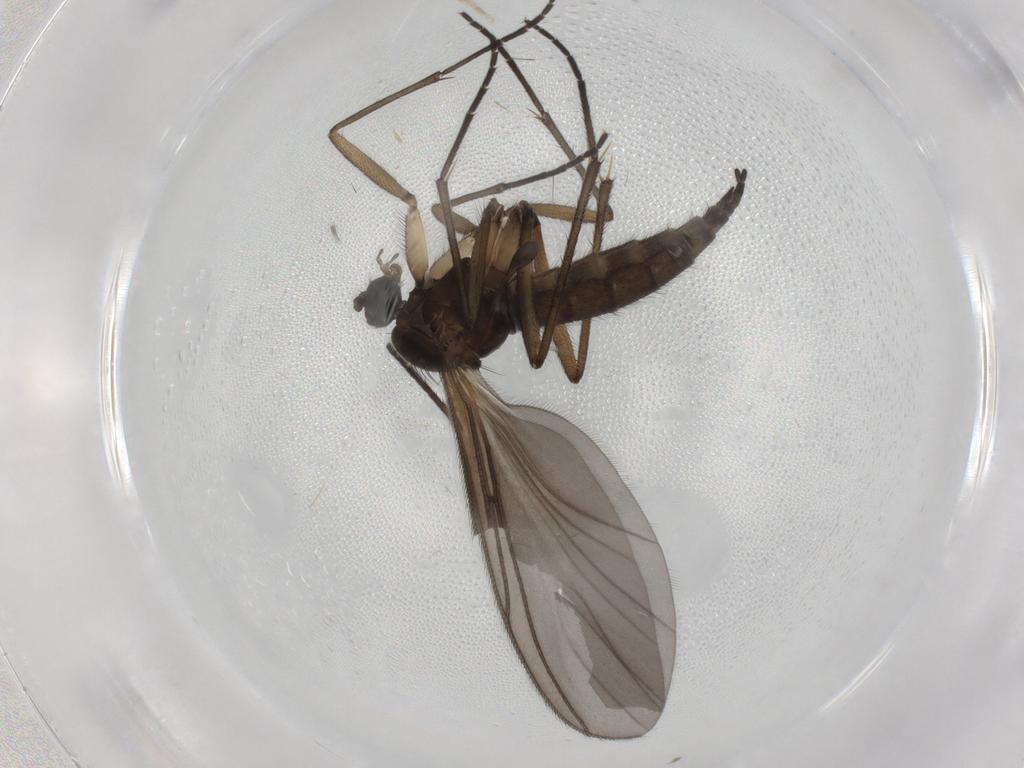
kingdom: Animalia
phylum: Arthropoda
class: Insecta
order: Diptera
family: Sciaridae
